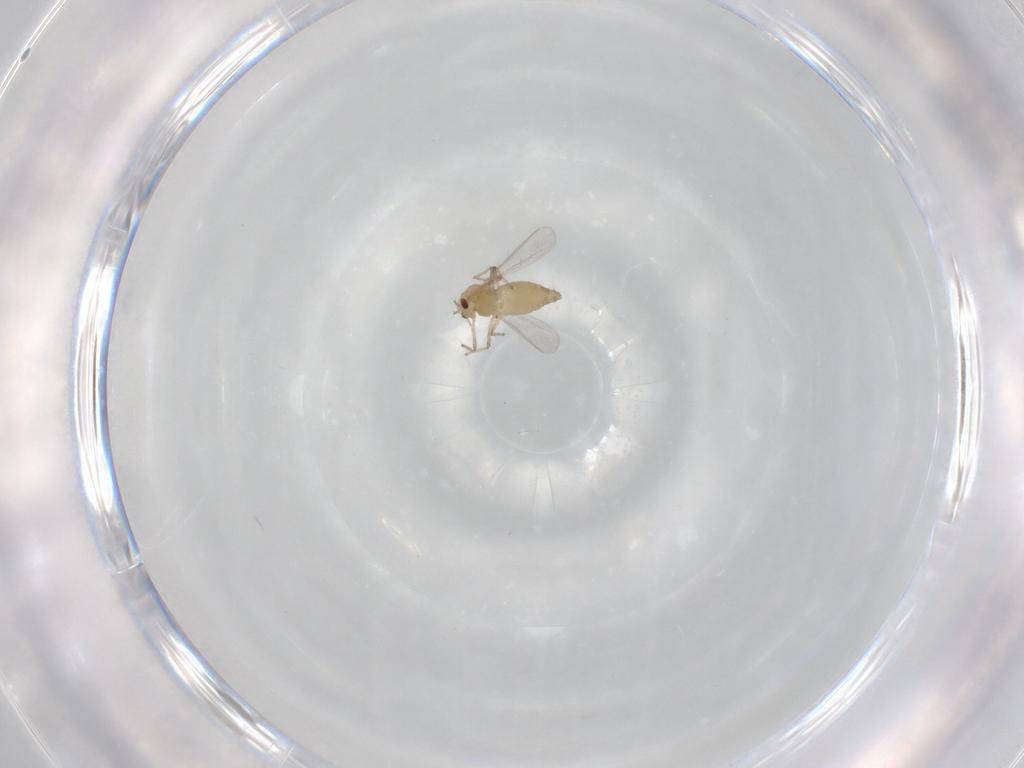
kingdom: Animalia
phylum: Arthropoda
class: Insecta
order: Diptera
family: Chironomidae
